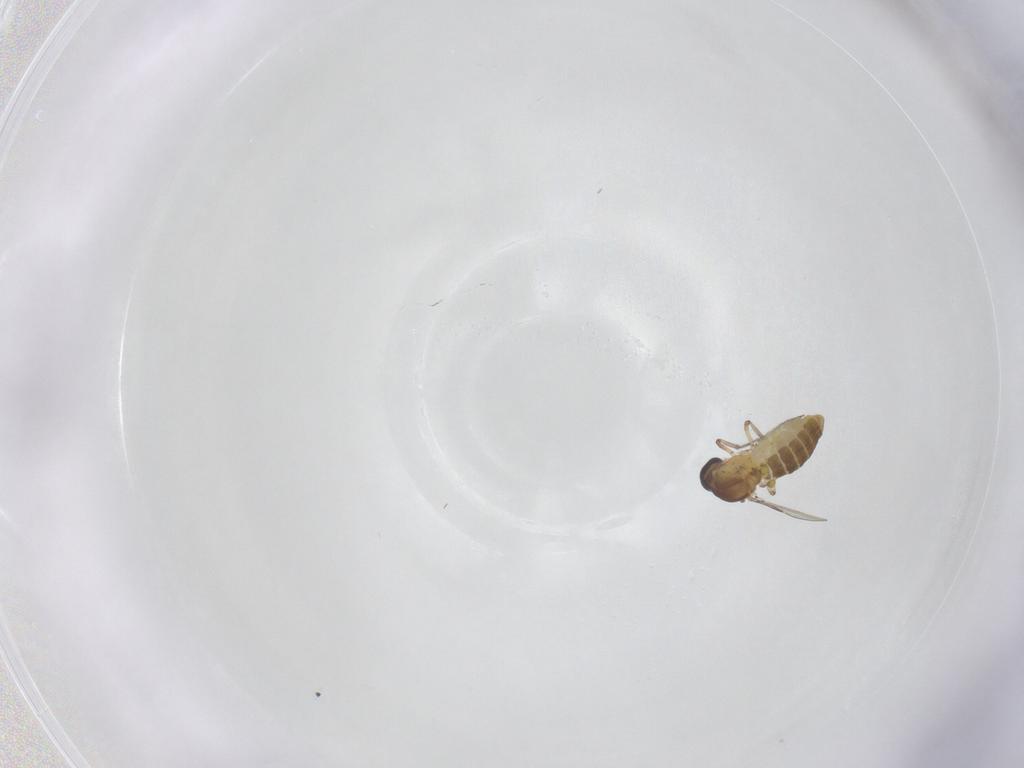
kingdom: Animalia
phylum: Arthropoda
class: Insecta
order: Diptera
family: Ceratopogonidae
